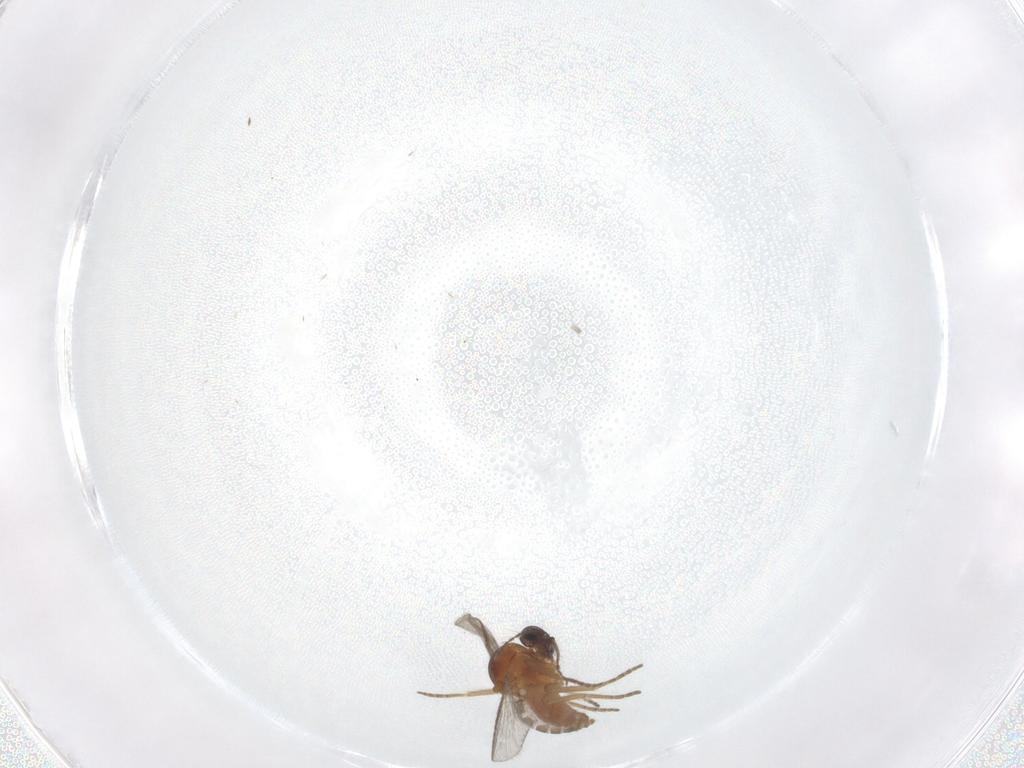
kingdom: Animalia
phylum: Arthropoda
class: Insecta
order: Diptera
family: Ceratopogonidae
